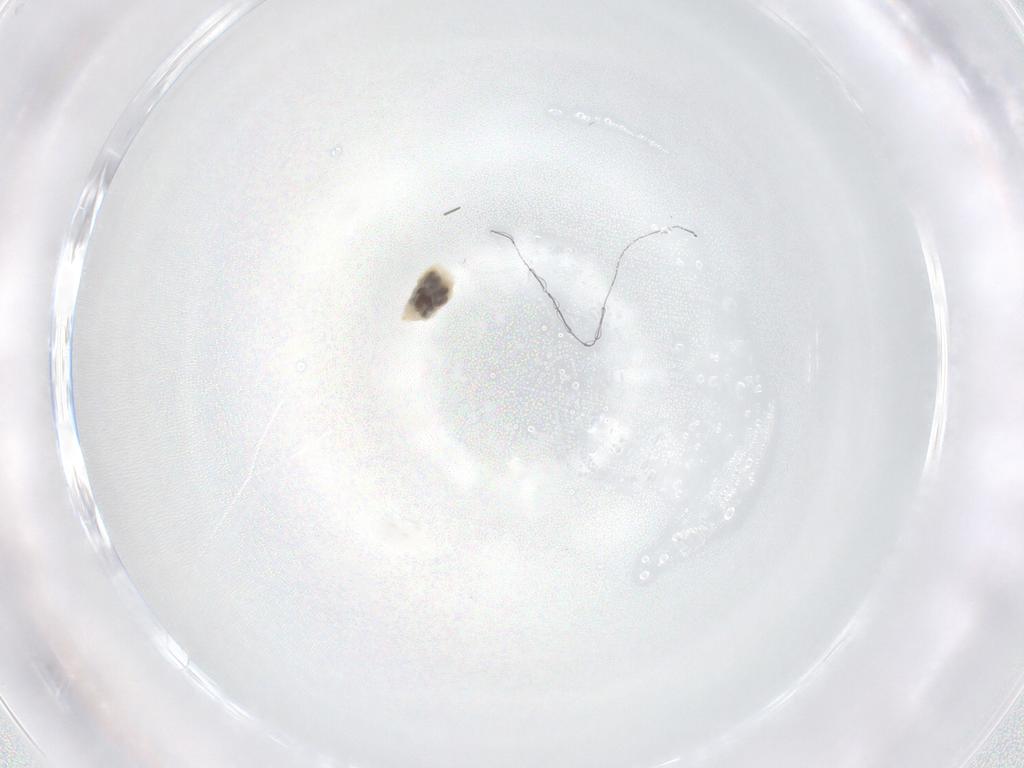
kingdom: Animalia
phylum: Arthropoda
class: Insecta
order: Hemiptera
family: Aleyrodidae
